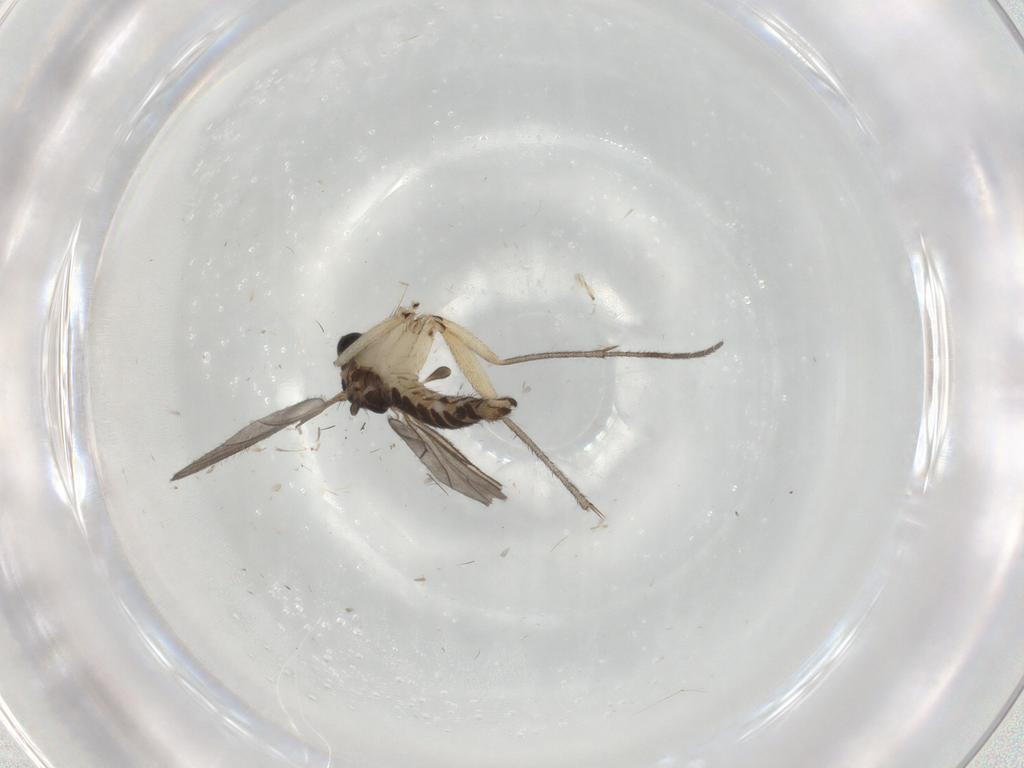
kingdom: Animalia
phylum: Arthropoda
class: Insecta
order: Diptera
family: Sciaridae
